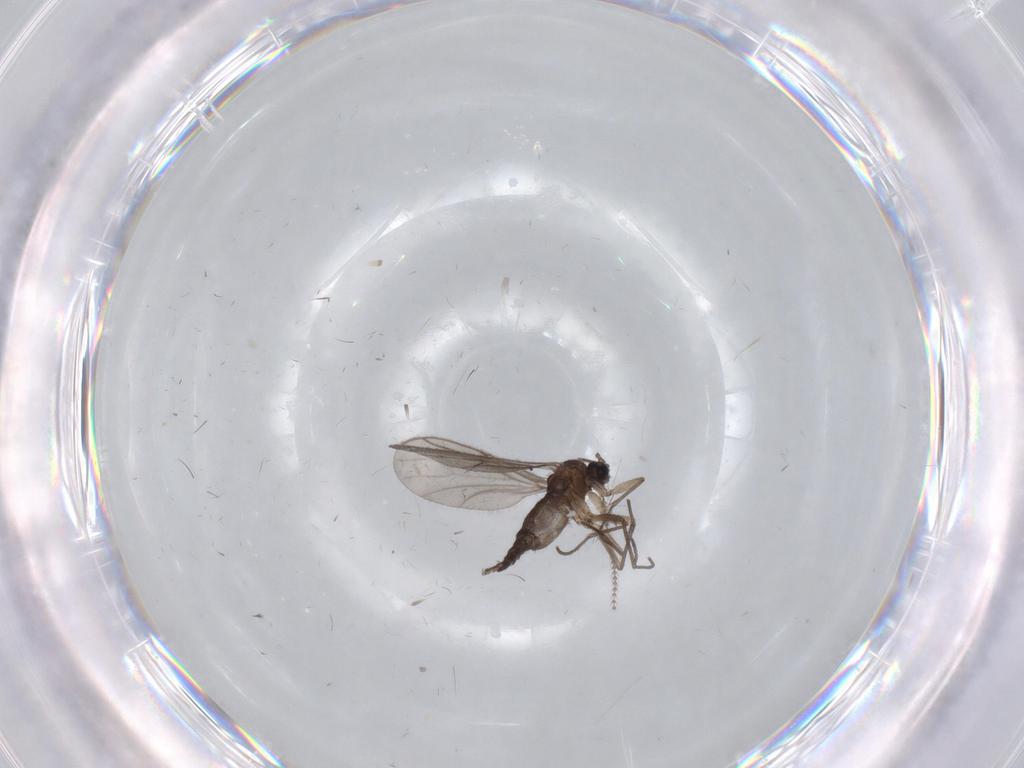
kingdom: Animalia
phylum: Arthropoda
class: Insecta
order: Diptera
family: Sciaridae
